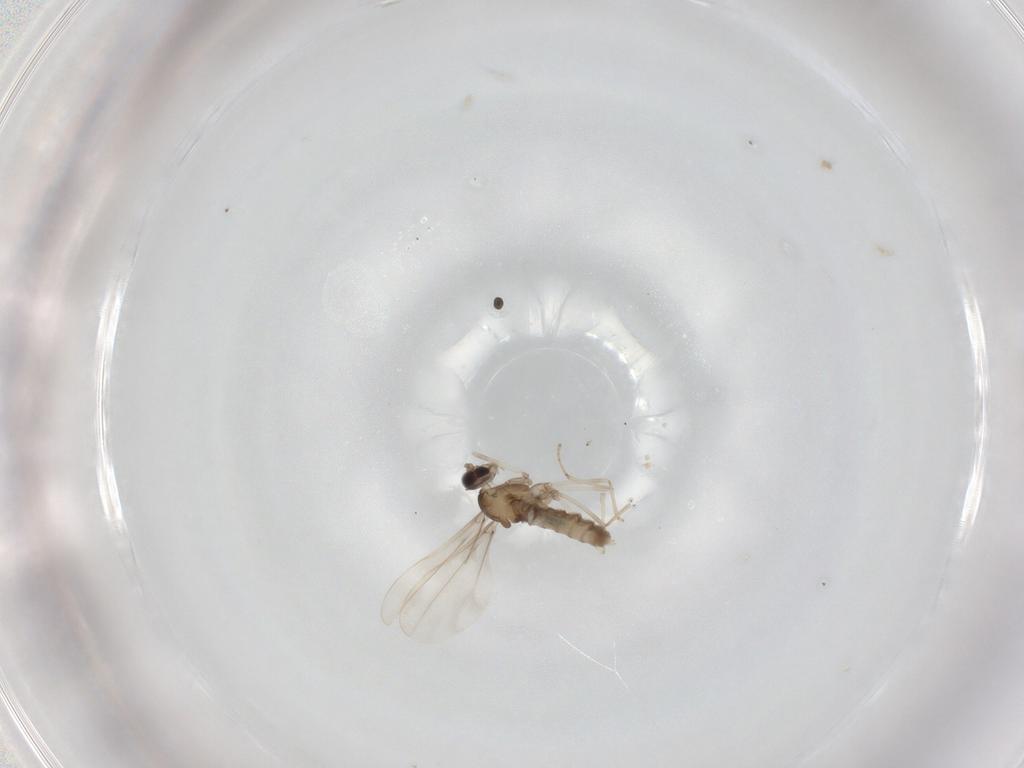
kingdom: Animalia
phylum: Arthropoda
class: Insecta
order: Diptera
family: Cecidomyiidae
